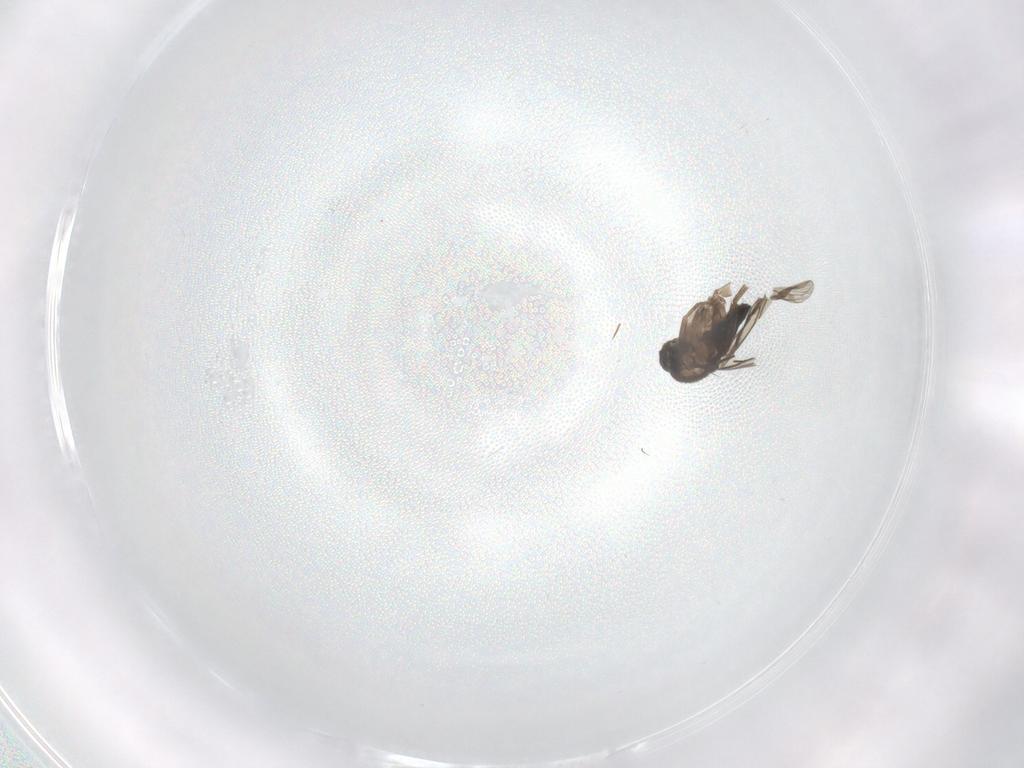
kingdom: Animalia
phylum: Arthropoda
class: Insecta
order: Diptera
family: Phoridae
